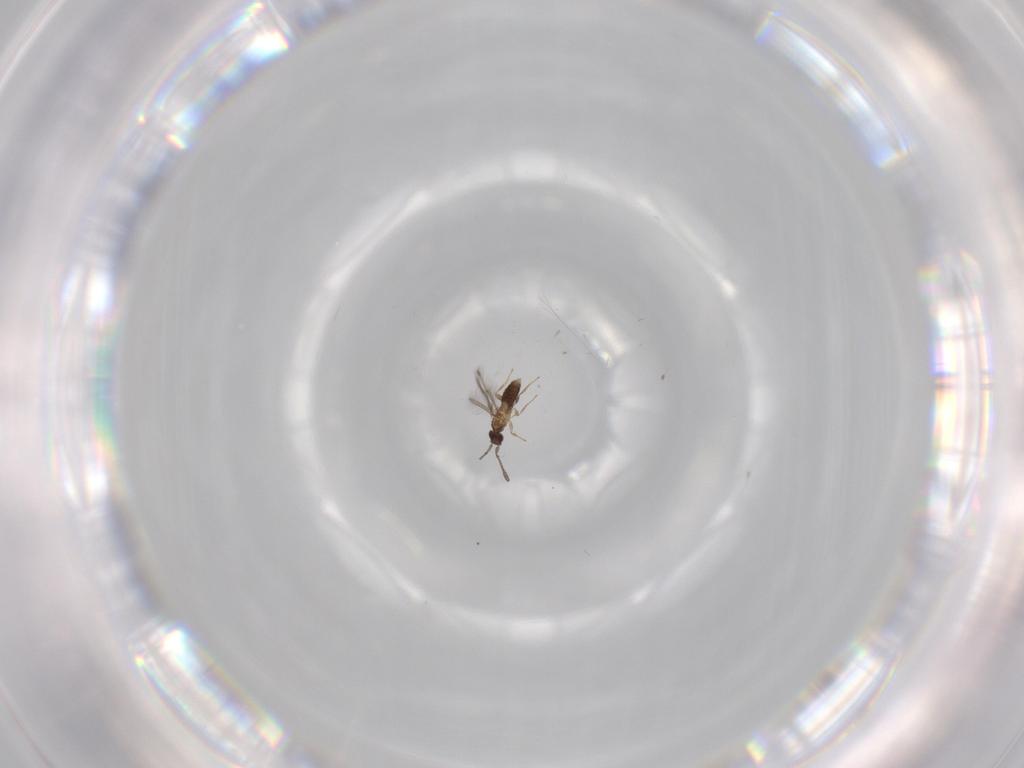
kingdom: Animalia
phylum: Arthropoda
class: Insecta
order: Hymenoptera
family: Mymaridae
